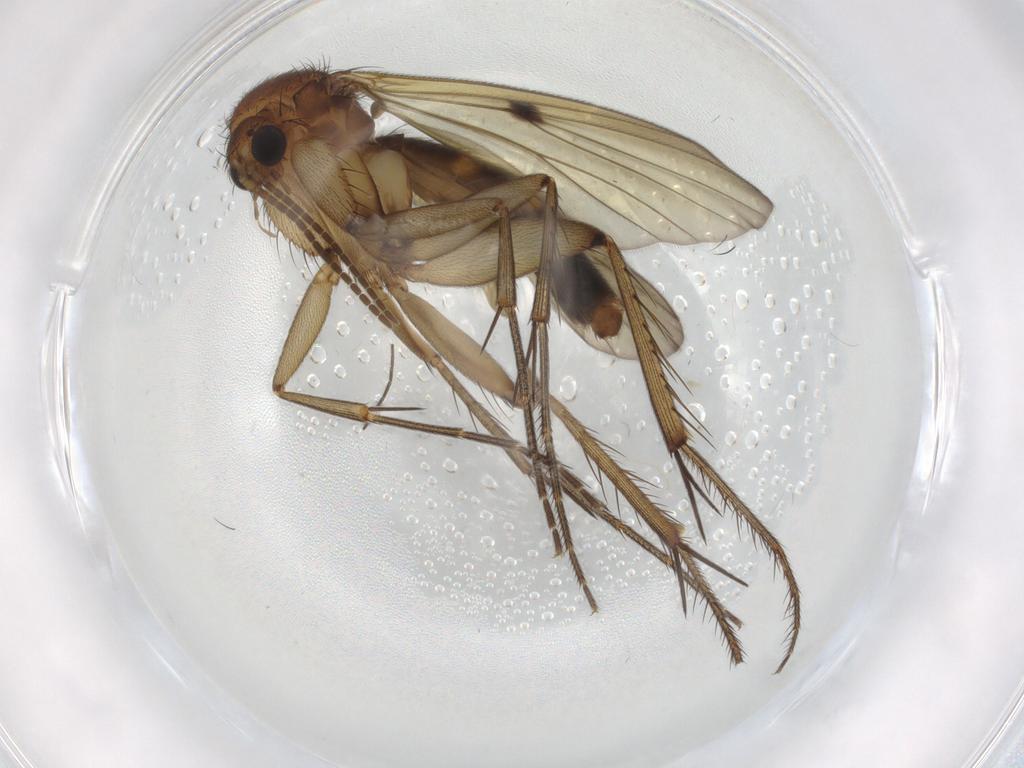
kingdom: Animalia
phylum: Arthropoda
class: Insecta
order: Diptera
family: Sciaridae
